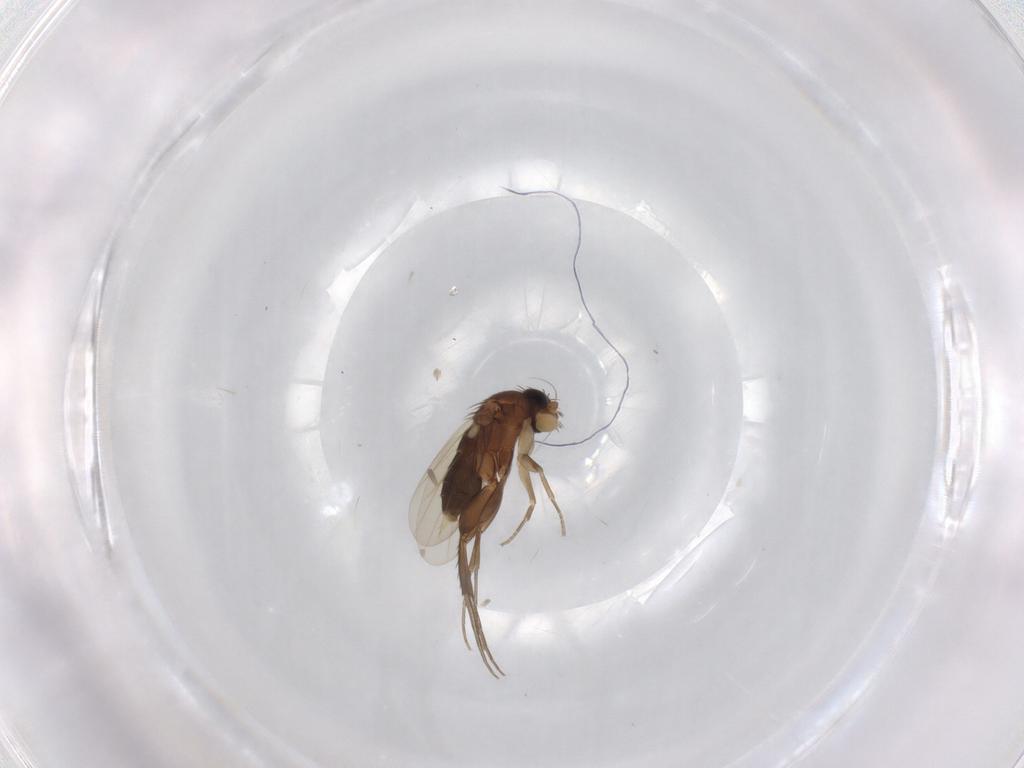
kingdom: Animalia
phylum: Arthropoda
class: Insecta
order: Diptera
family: Phoridae
